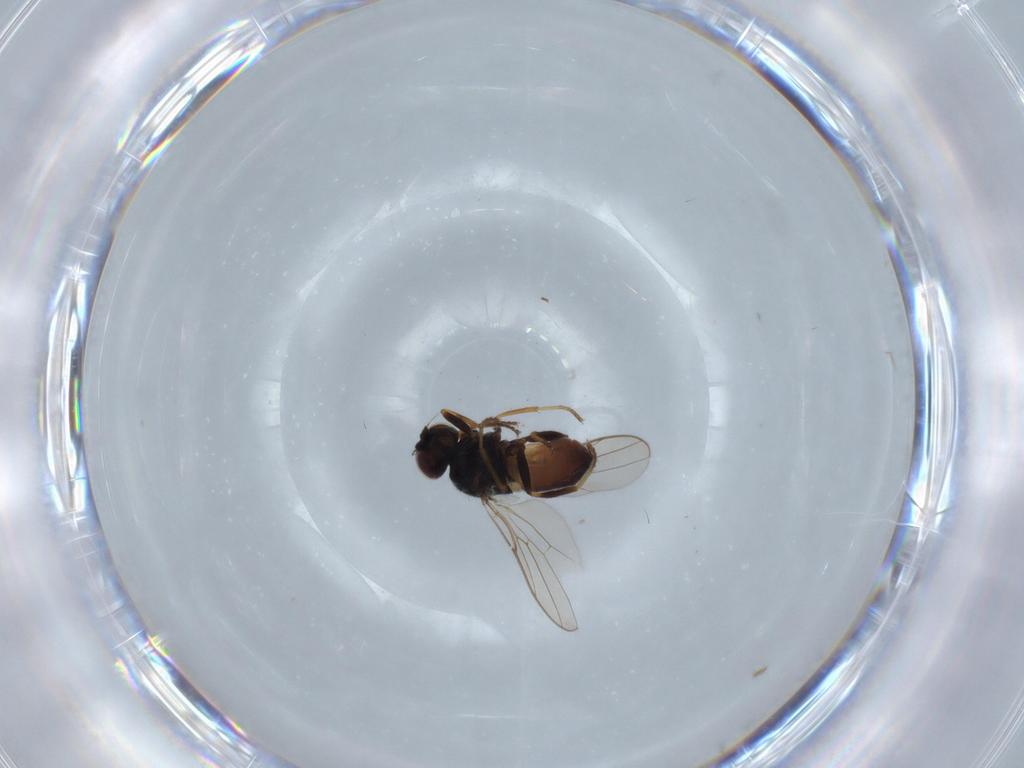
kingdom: Animalia
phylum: Arthropoda
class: Insecta
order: Diptera
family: Chloropidae
